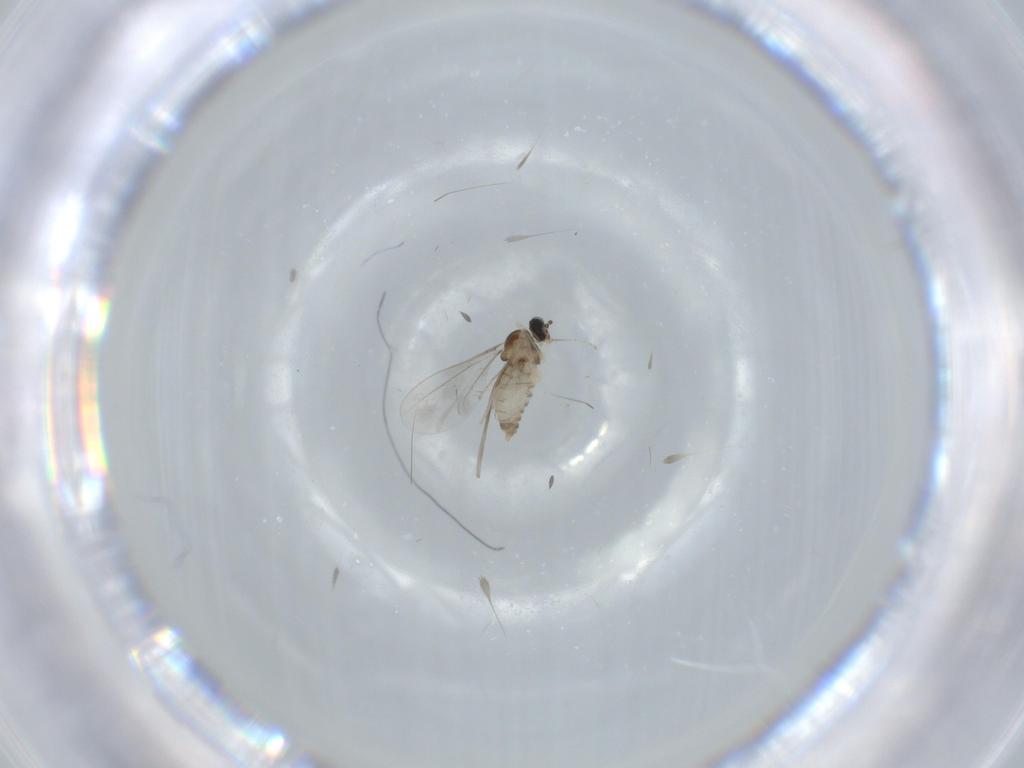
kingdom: Animalia
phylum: Arthropoda
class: Insecta
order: Diptera
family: Cecidomyiidae
